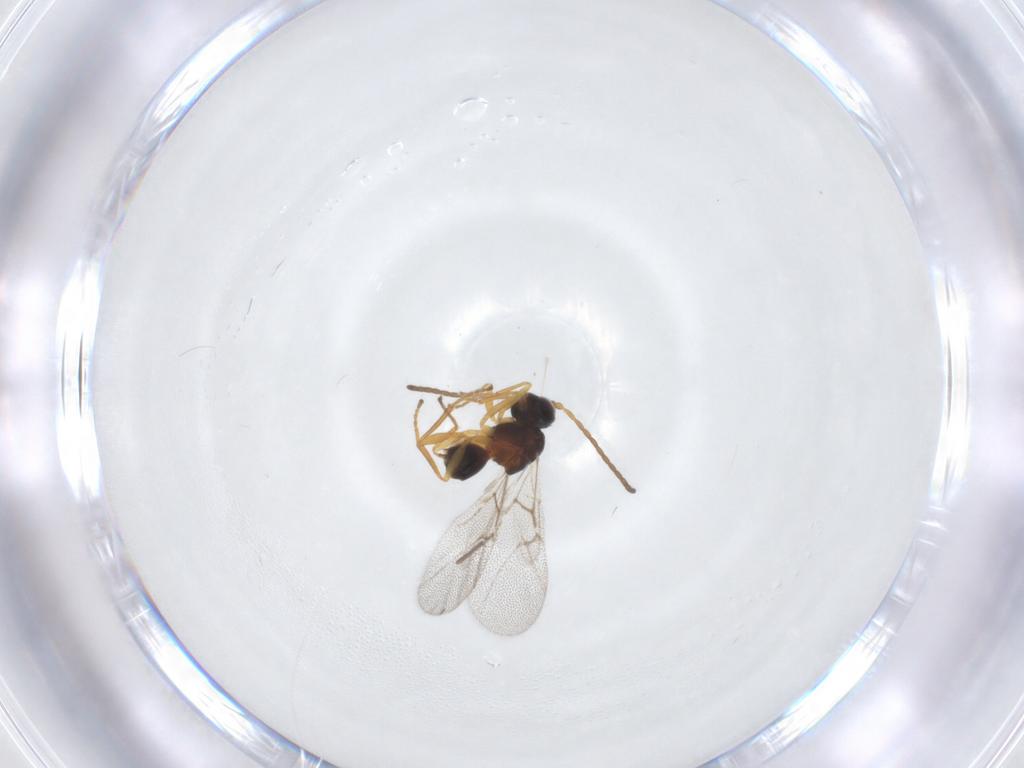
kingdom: Animalia
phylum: Arthropoda
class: Insecta
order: Hymenoptera
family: Cynipidae
